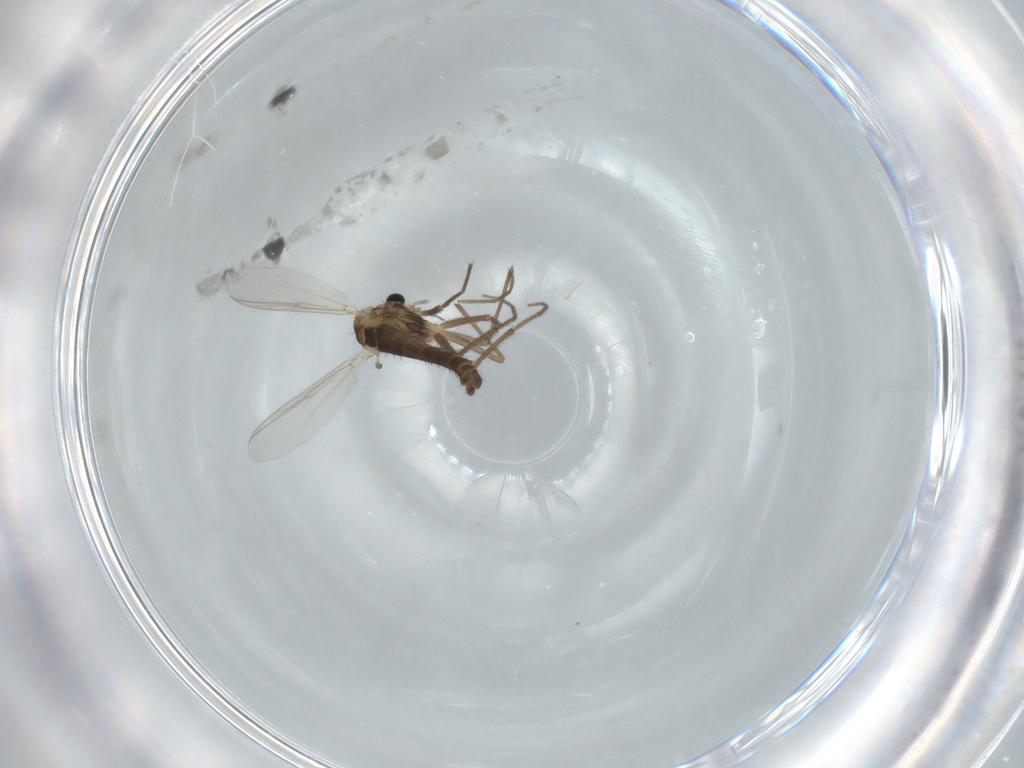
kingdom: Animalia
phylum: Arthropoda
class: Insecta
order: Diptera
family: Chironomidae
